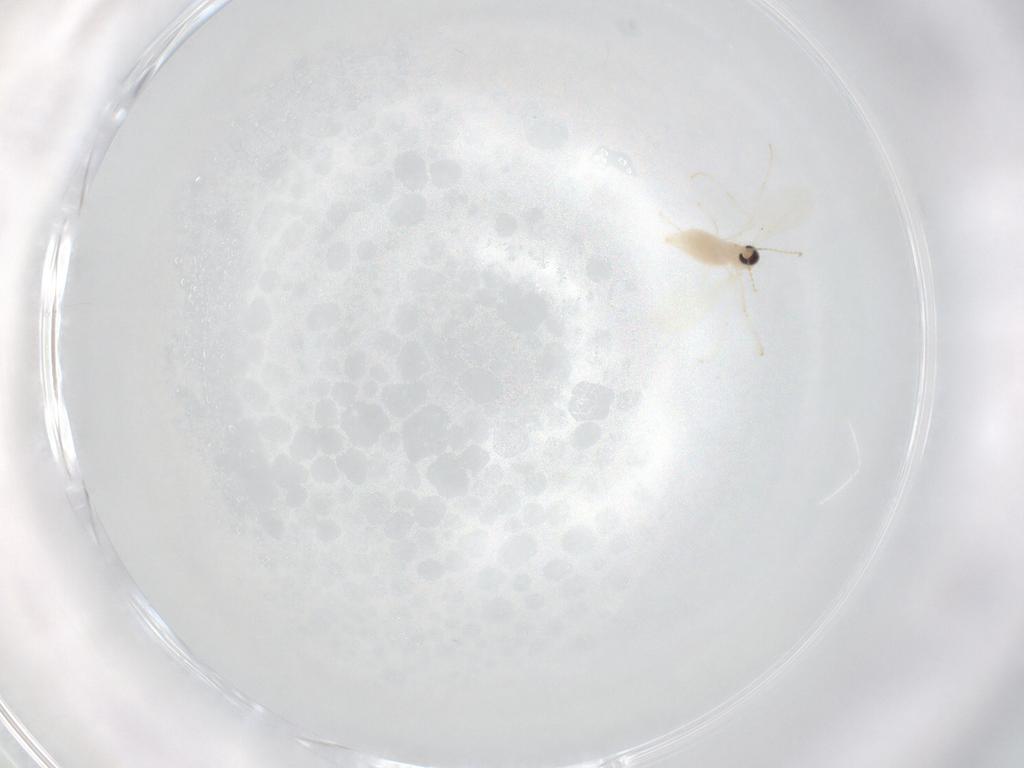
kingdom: Animalia
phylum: Arthropoda
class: Insecta
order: Diptera
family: Cecidomyiidae
